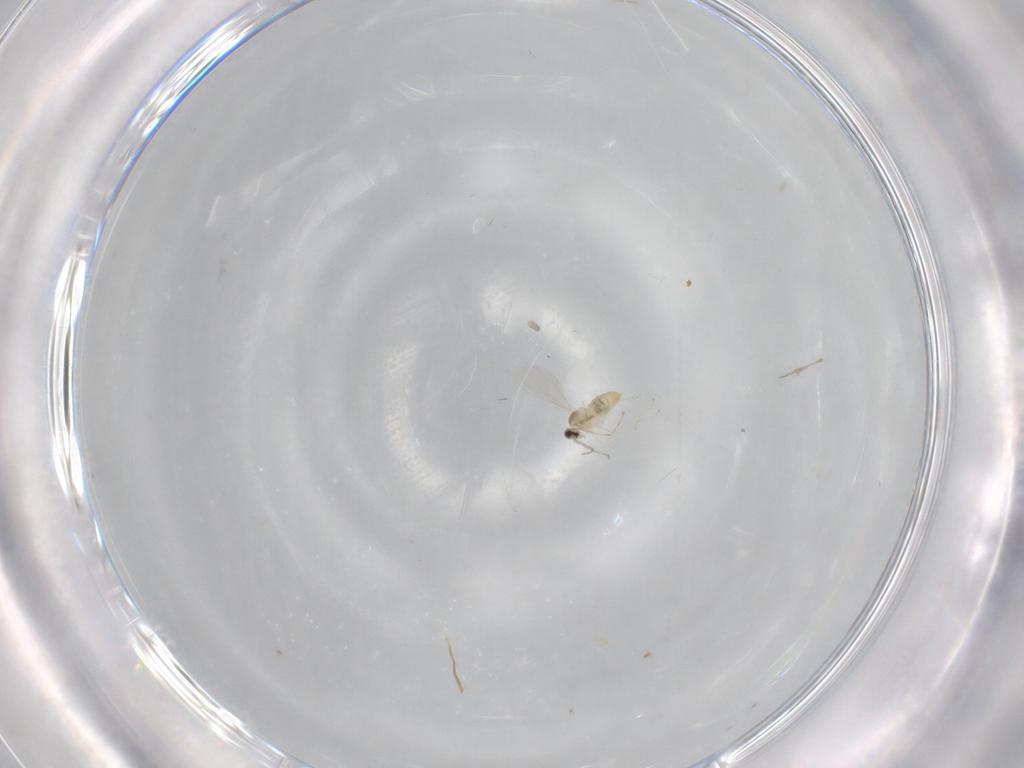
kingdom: Animalia
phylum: Arthropoda
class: Insecta
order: Diptera
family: Cecidomyiidae
